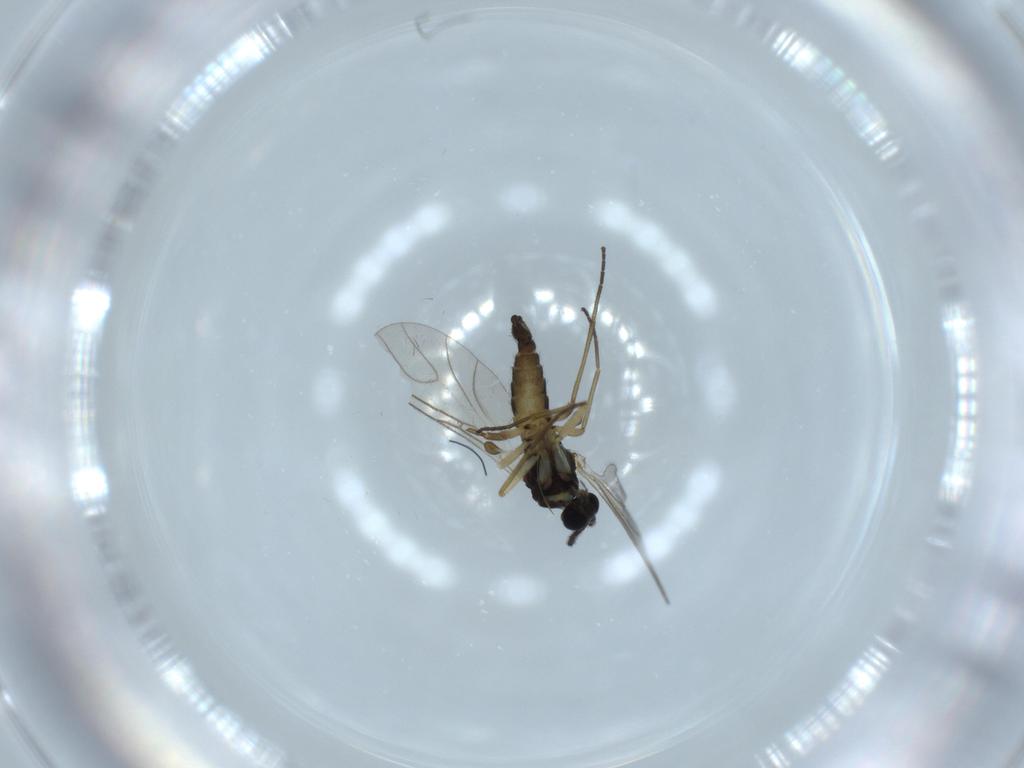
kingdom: Animalia
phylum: Arthropoda
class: Insecta
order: Diptera
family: Sciaridae
